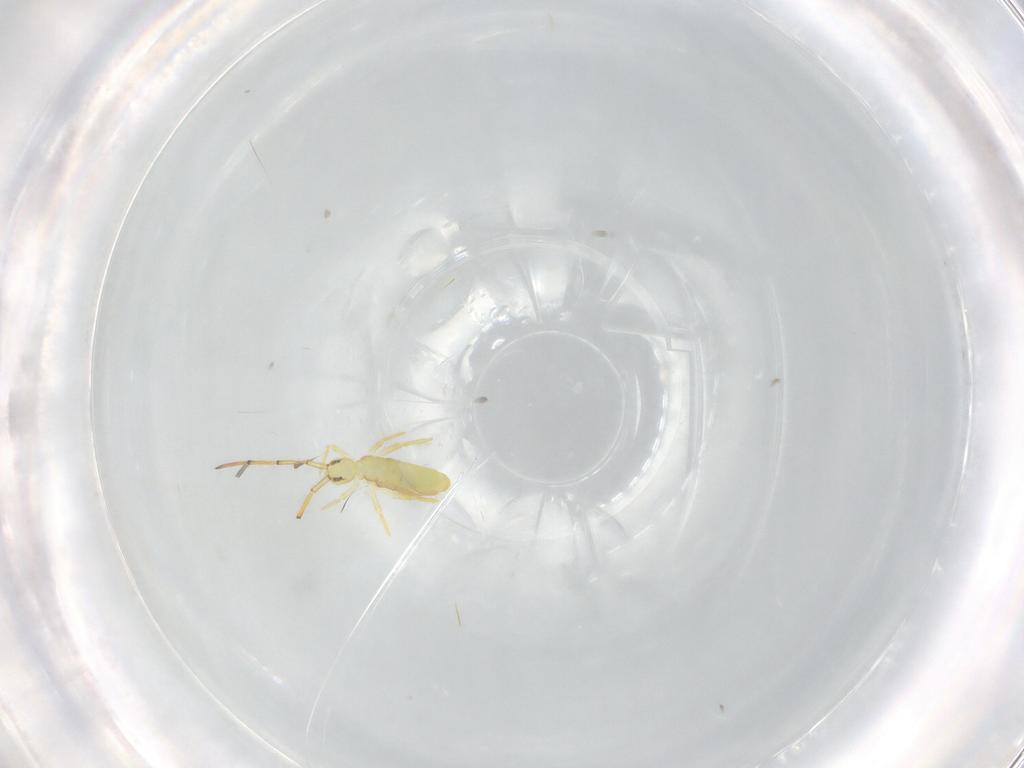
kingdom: Animalia
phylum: Arthropoda
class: Collembola
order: Entomobryomorpha
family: Paronellidae
